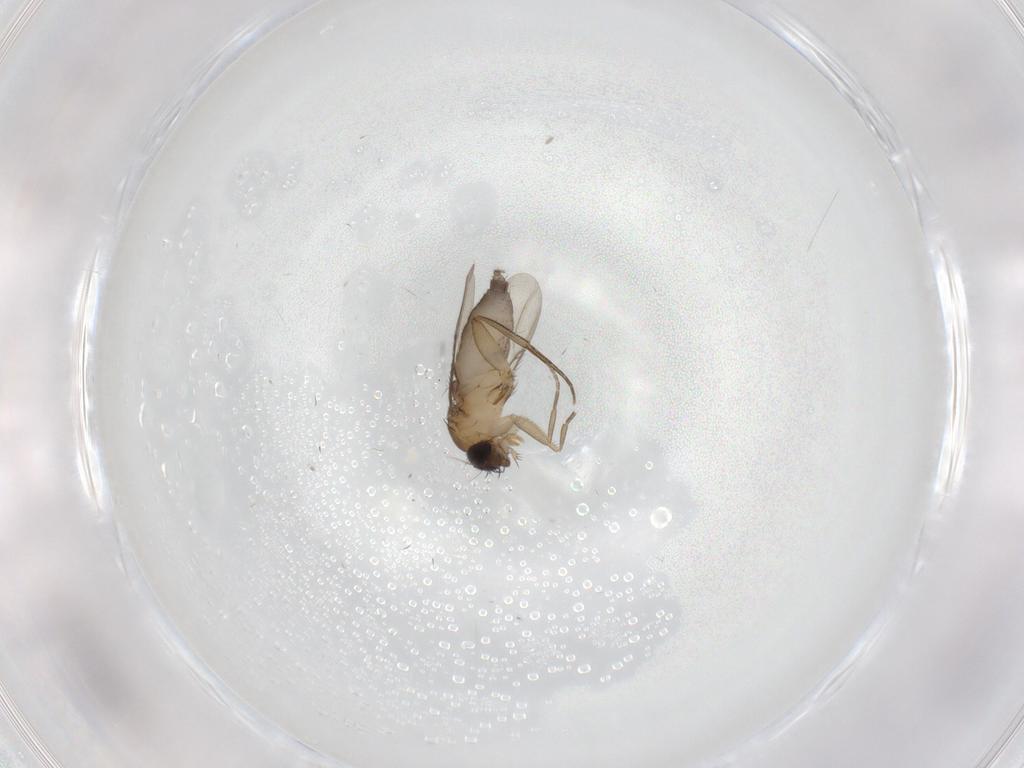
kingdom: Animalia
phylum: Arthropoda
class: Insecta
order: Diptera
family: Phoridae
